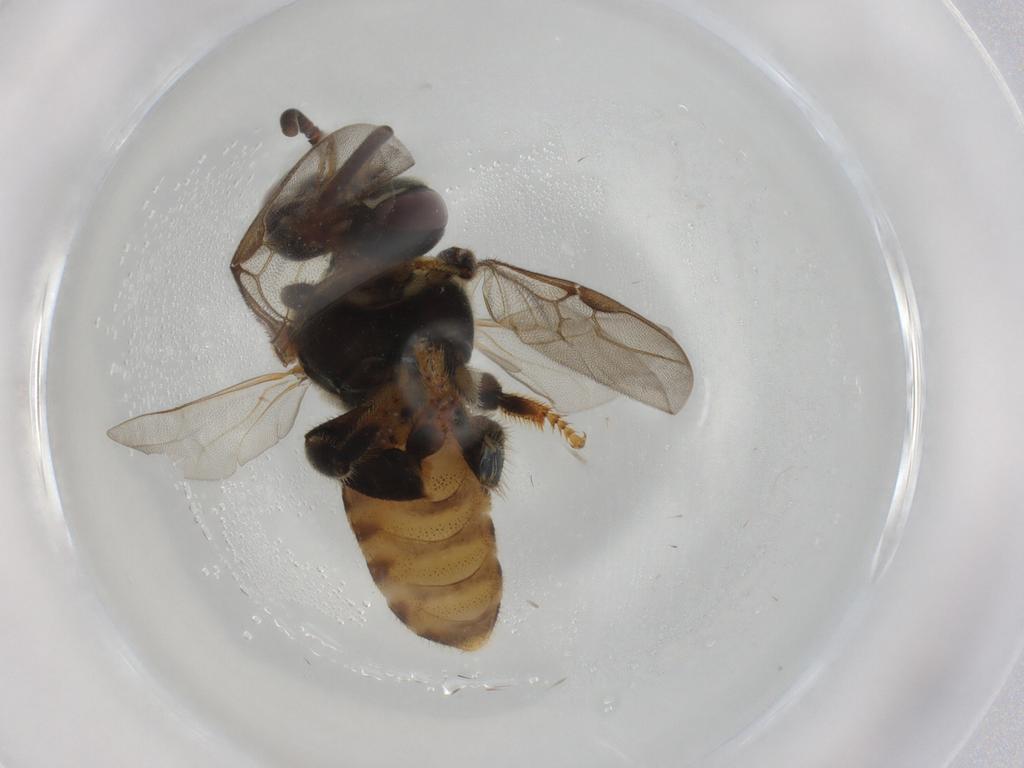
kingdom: Animalia
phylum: Arthropoda
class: Insecta
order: Hymenoptera
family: Apidae
